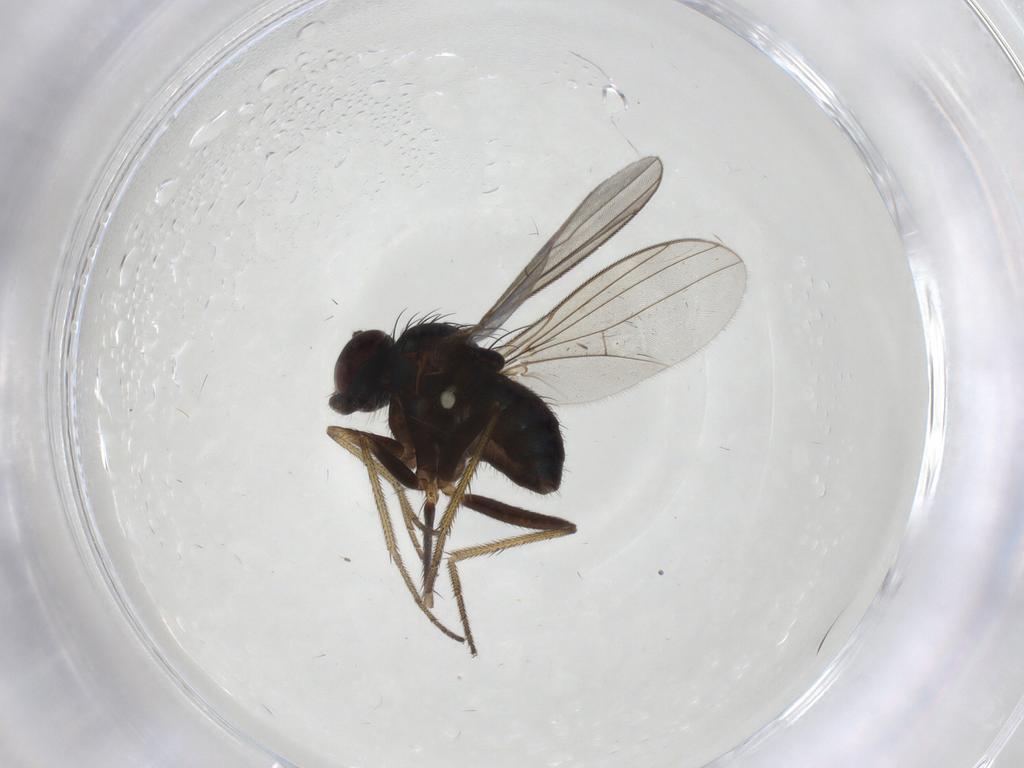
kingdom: Animalia
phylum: Arthropoda
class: Insecta
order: Diptera
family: Dolichopodidae
